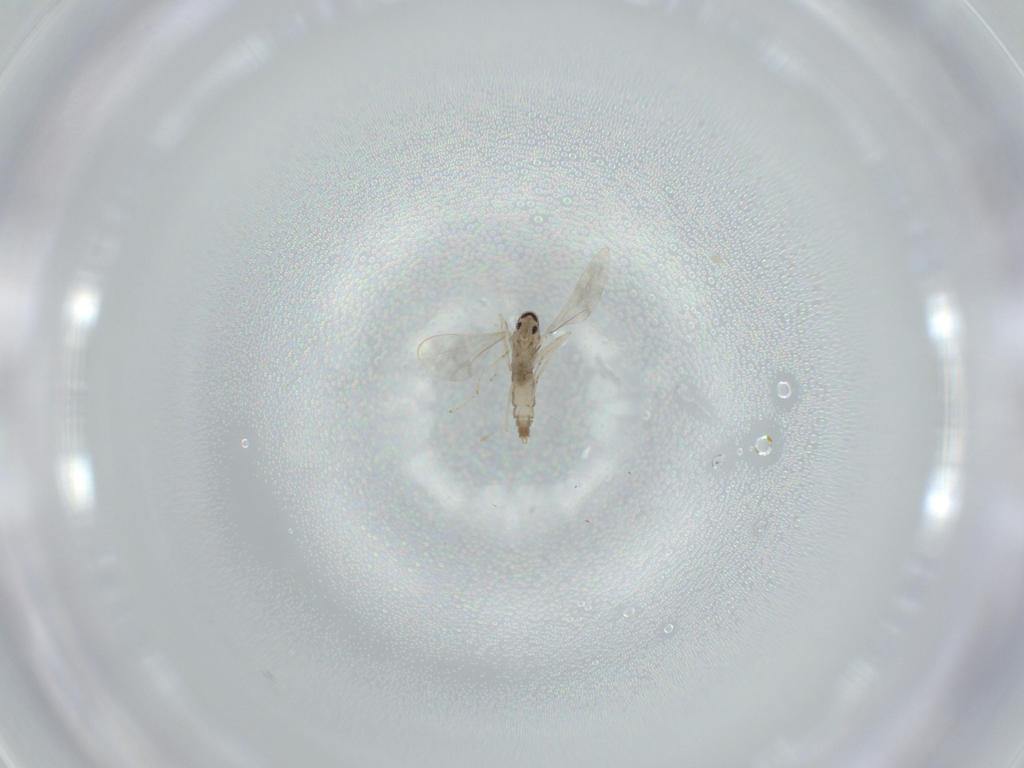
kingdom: Animalia
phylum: Arthropoda
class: Insecta
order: Diptera
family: Cecidomyiidae
